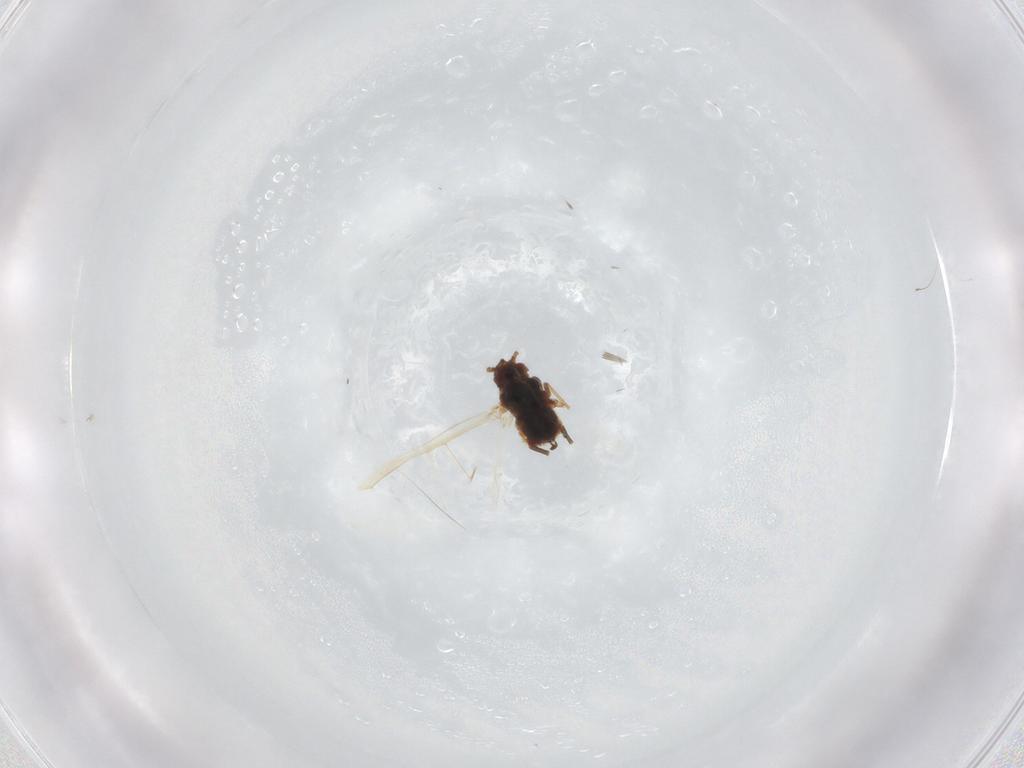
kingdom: Animalia
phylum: Arthropoda
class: Insecta
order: Hemiptera
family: Aphididae
